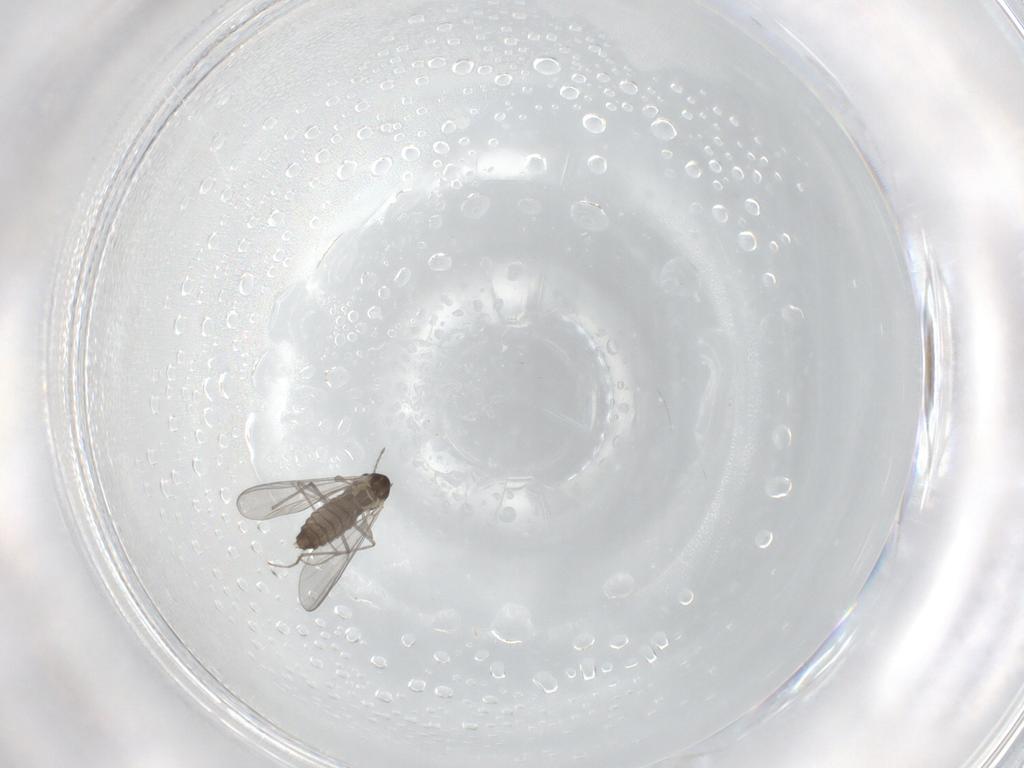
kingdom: Animalia
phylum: Arthropoda
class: Insecta
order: Diptera
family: Chironomidae
